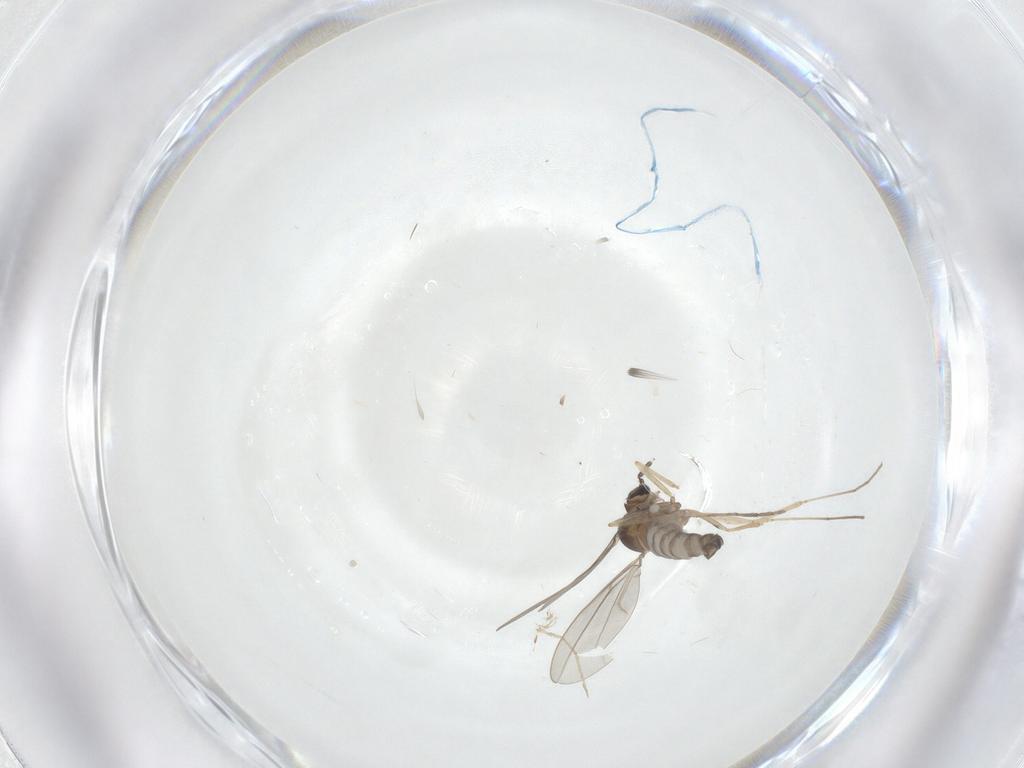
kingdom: Animalia
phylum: Arthropoda
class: Insecta
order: Diptera
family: Cecidomyiidae
